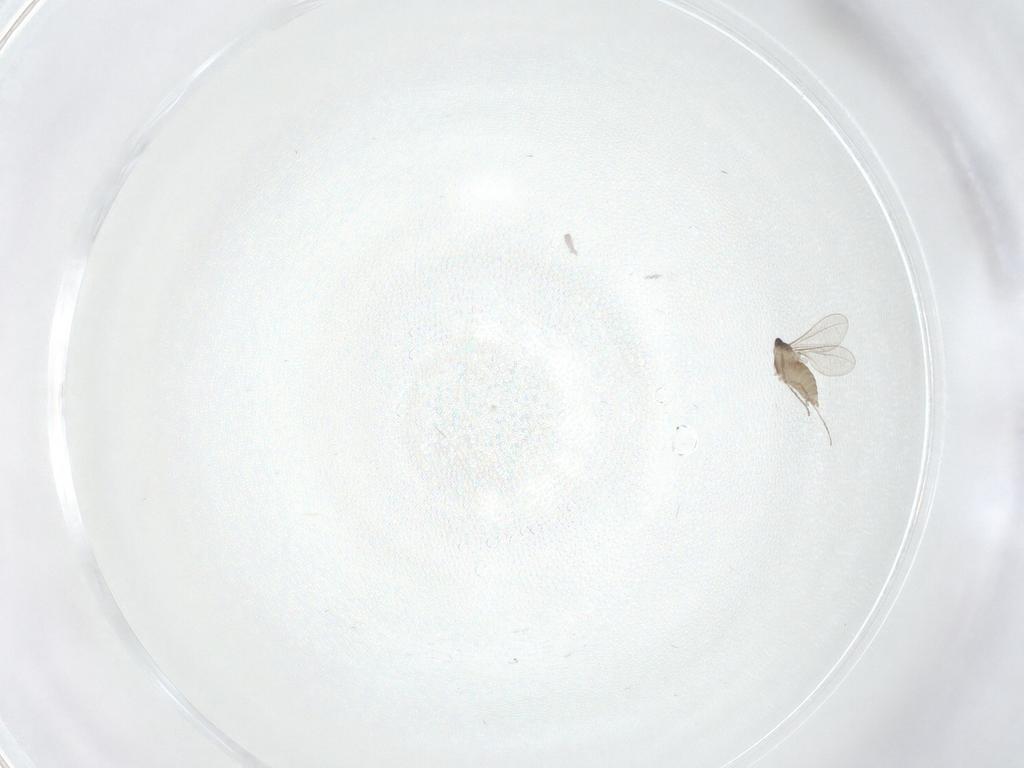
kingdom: Animalia
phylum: Arthropoda
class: Insecta
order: Diptera
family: Chironomidae
